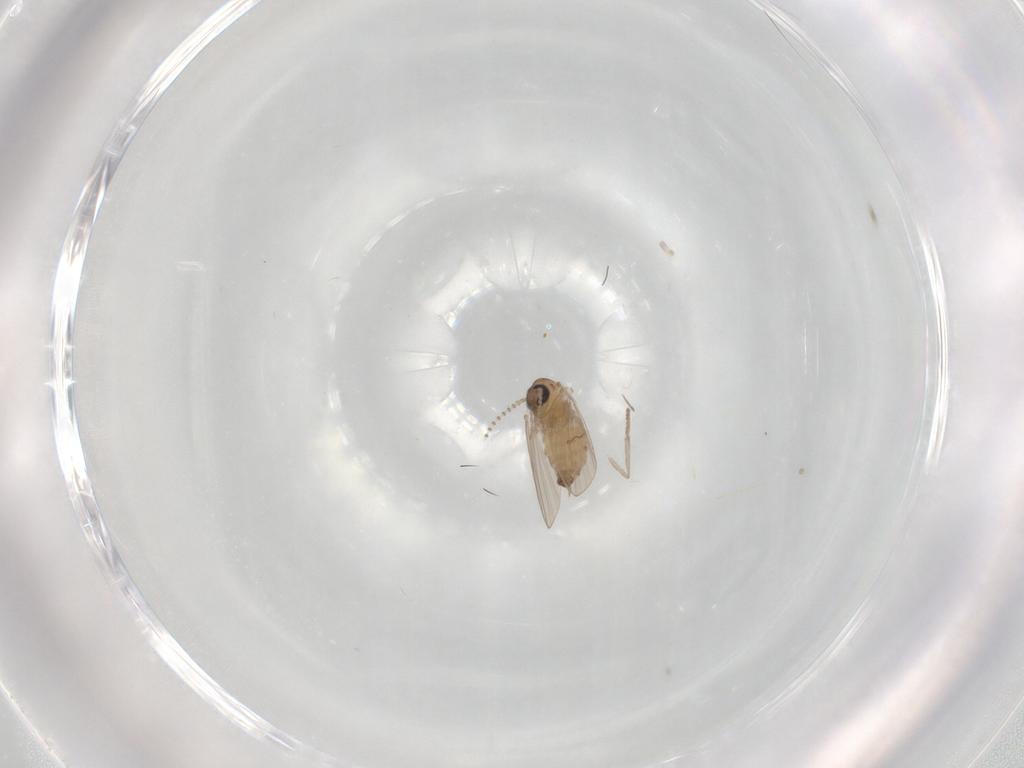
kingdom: Animalia
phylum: Arthropoda
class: Insecta
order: Diptera
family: Psychodidae
